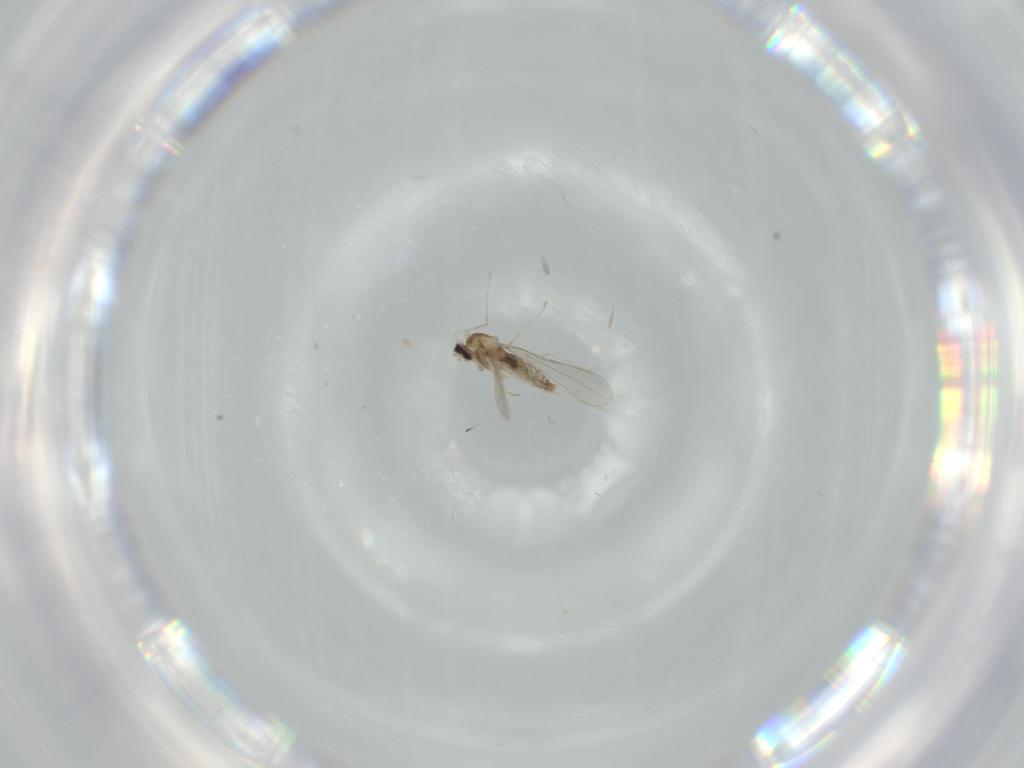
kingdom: Animalia
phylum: Arthropoda
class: Insecta
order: Diptera
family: Cecidomyiidae
